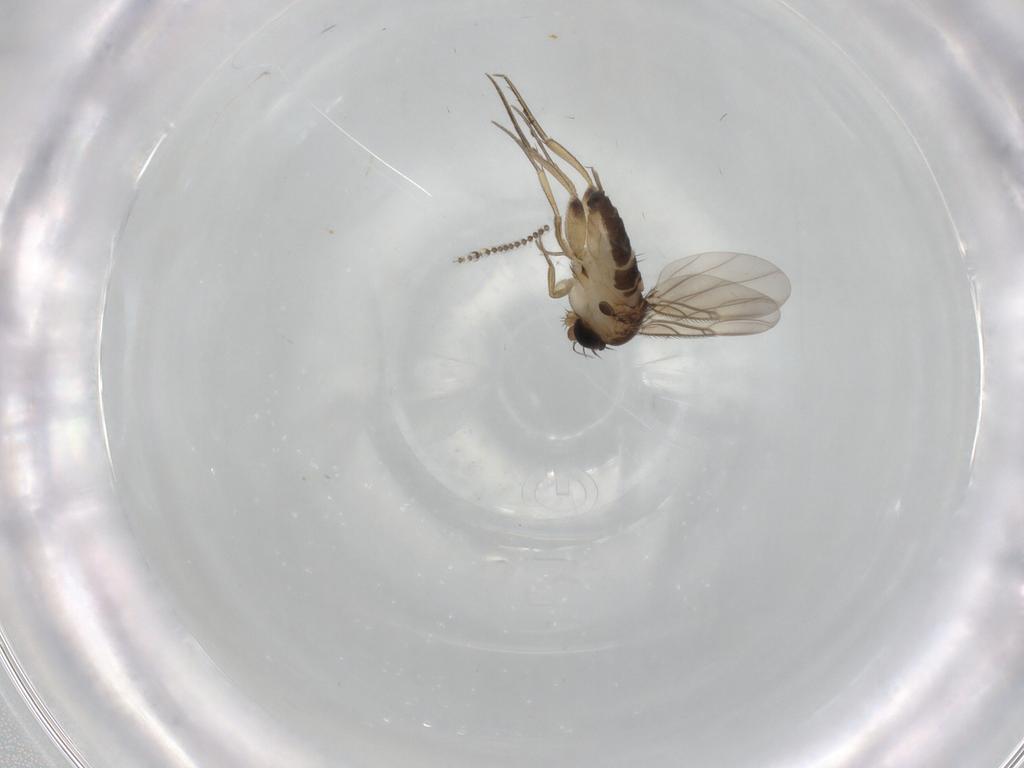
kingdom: Animalia
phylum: Arthropoda
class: Insecta
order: Diptera
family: Phoridae
